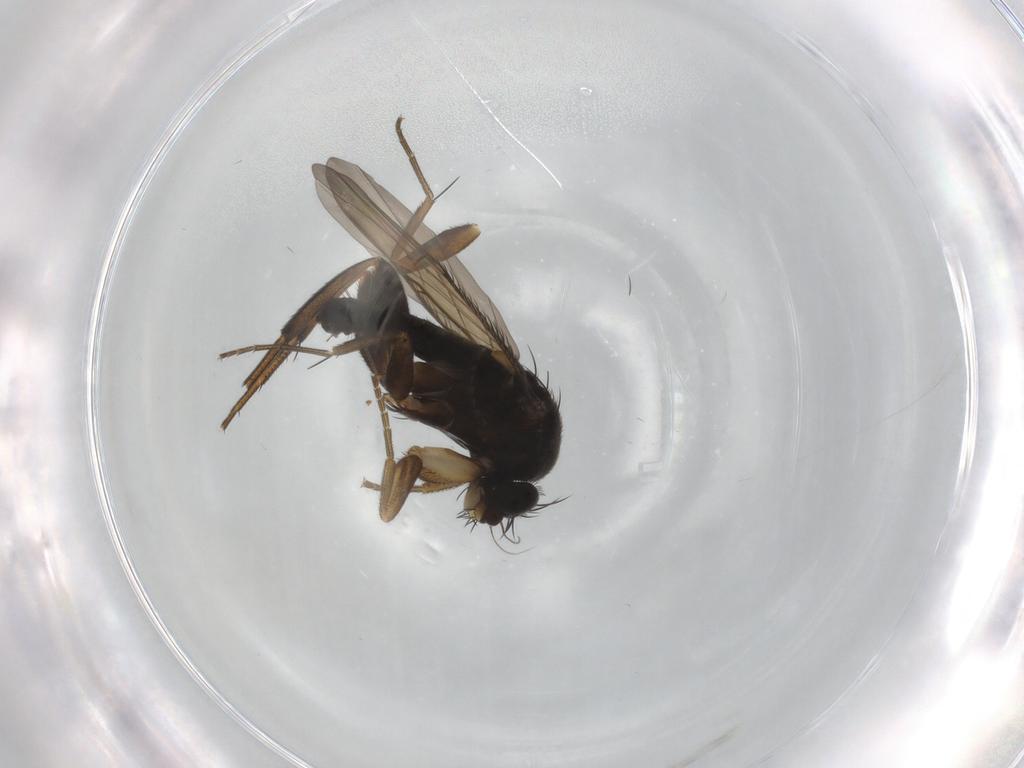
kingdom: Animalia
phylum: Arthropoda
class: Insecta
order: Diptera
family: Phoridae
